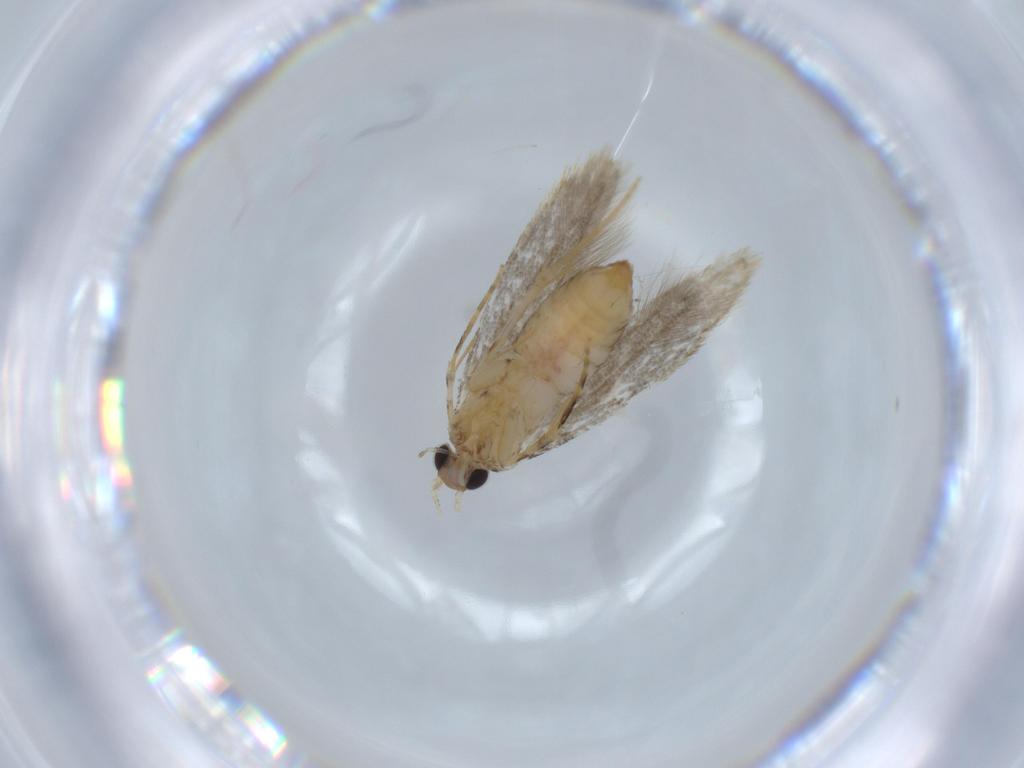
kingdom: Animalia
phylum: Arthropoda
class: Insecta
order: Lepidoptera
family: Tineidae
